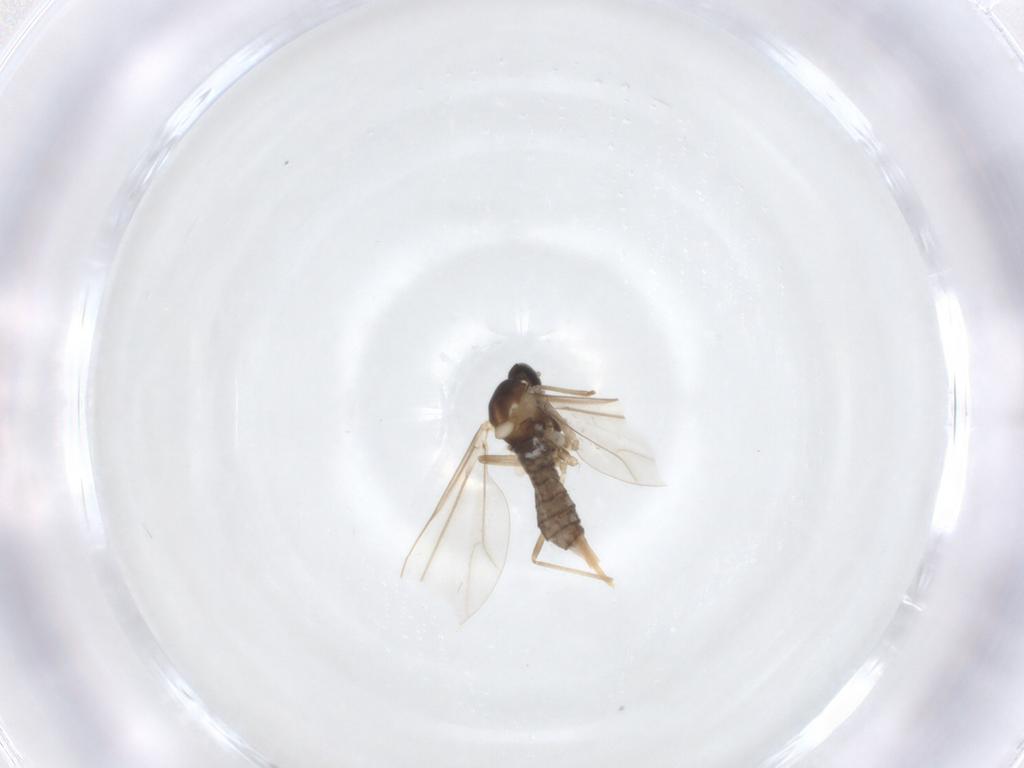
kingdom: Animalia
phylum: Arthropoda
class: Insecta
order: Diptera
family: Cecidomyiidae
